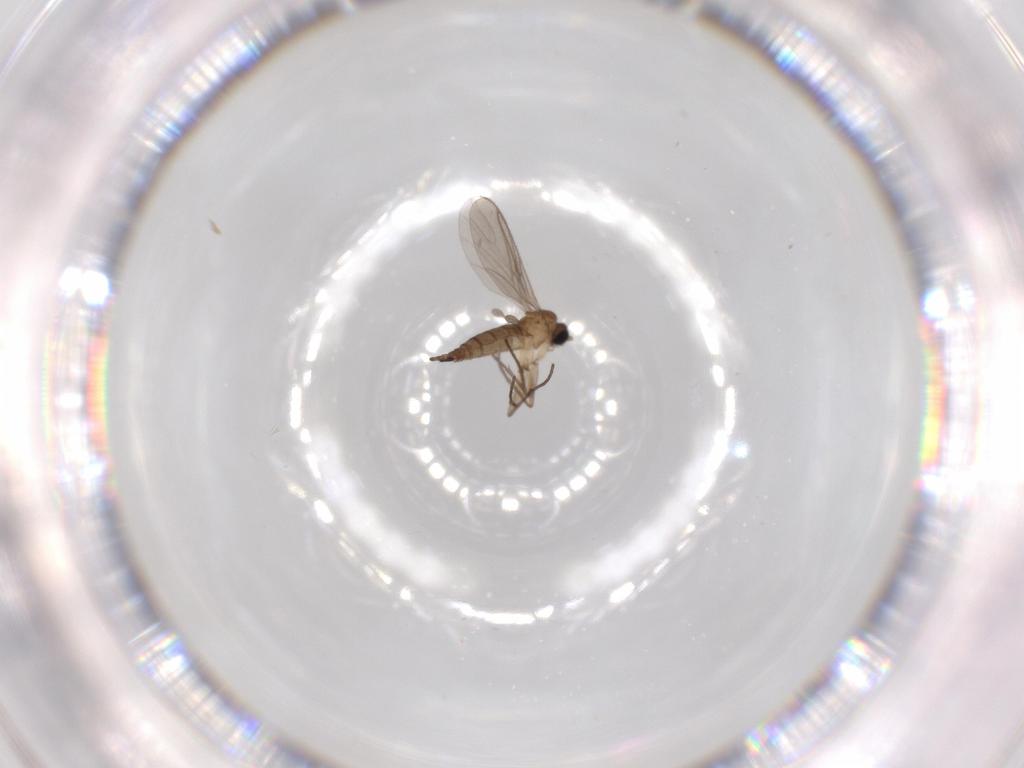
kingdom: Animalia
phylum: Arthropoda
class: Insecta
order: Diptera
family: Sciaridae
